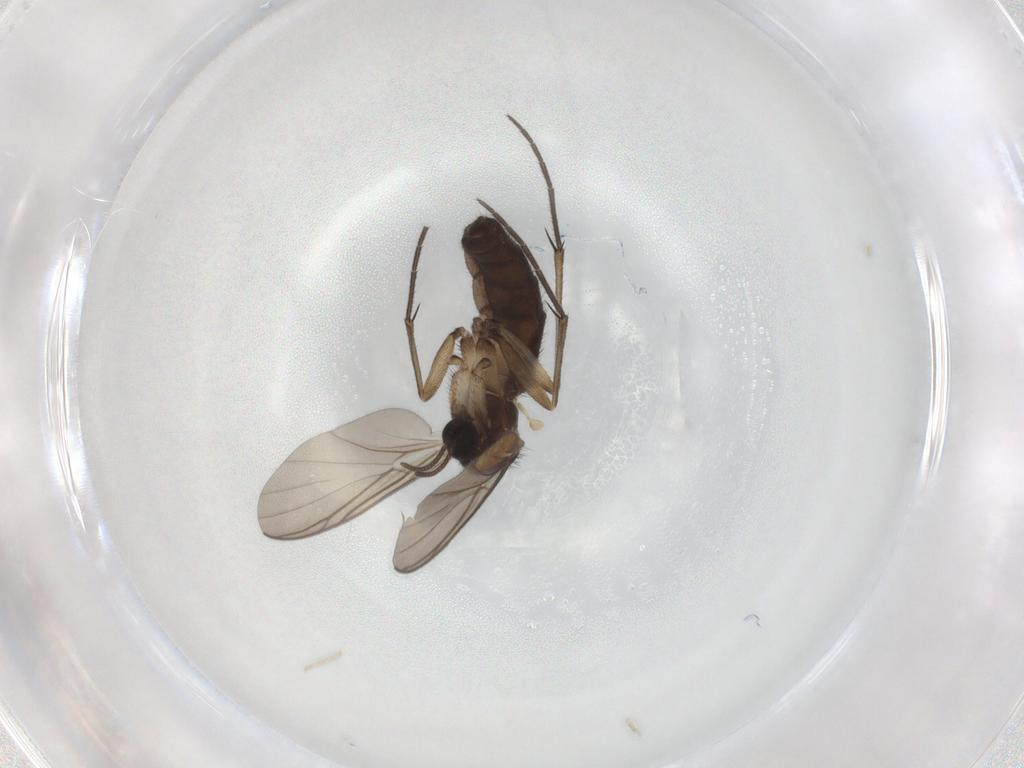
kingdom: Animalia
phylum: Arthropoda
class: Insecta
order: Diptera
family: Keroplatidae
